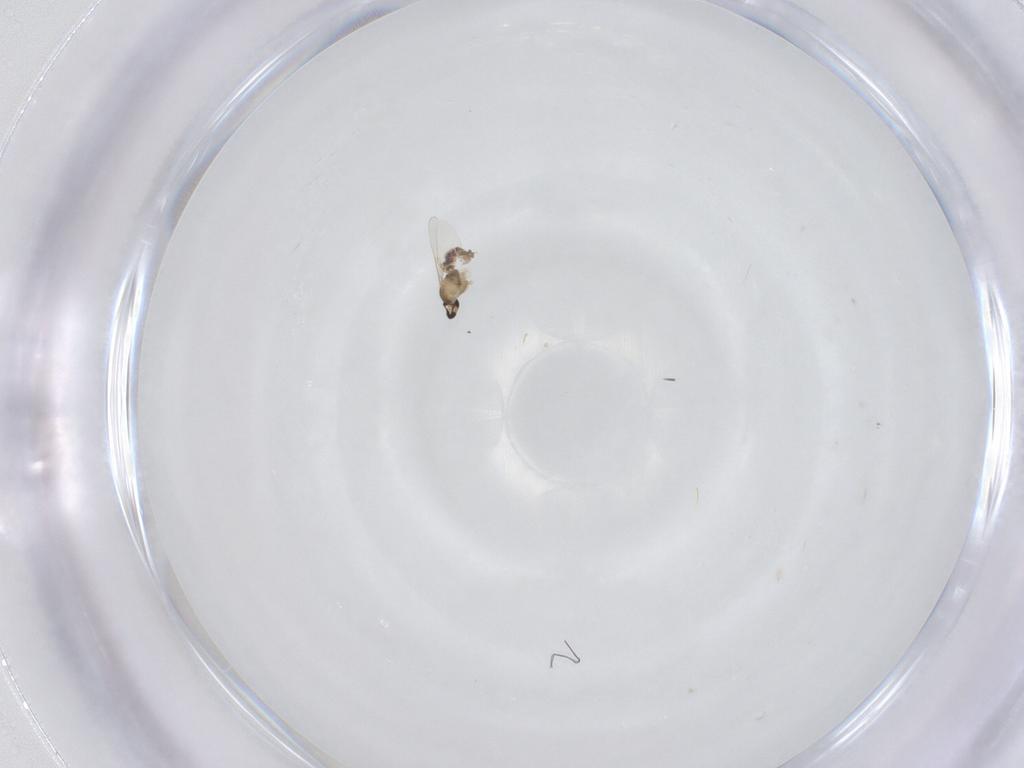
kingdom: Animalia
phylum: Arthropoda
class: Insecta
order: Diptera
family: Cecidomyiidae
